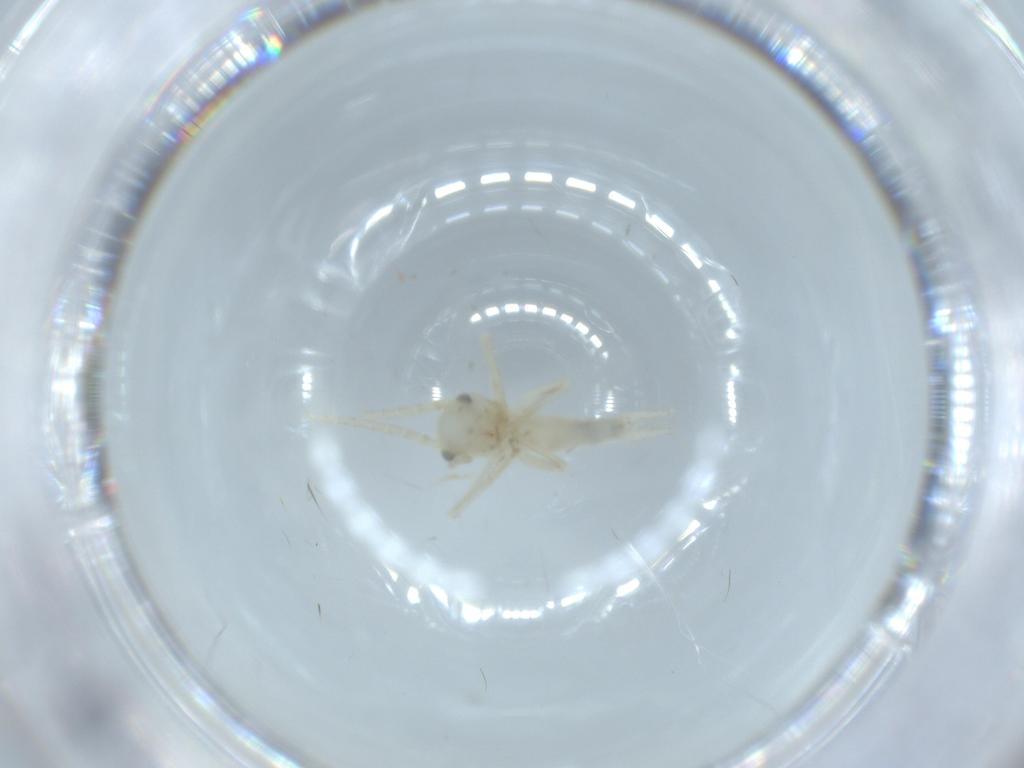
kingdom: Animalia
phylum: Arthropoda
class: Insecta
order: Orthoptera
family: Trigonidiidae
